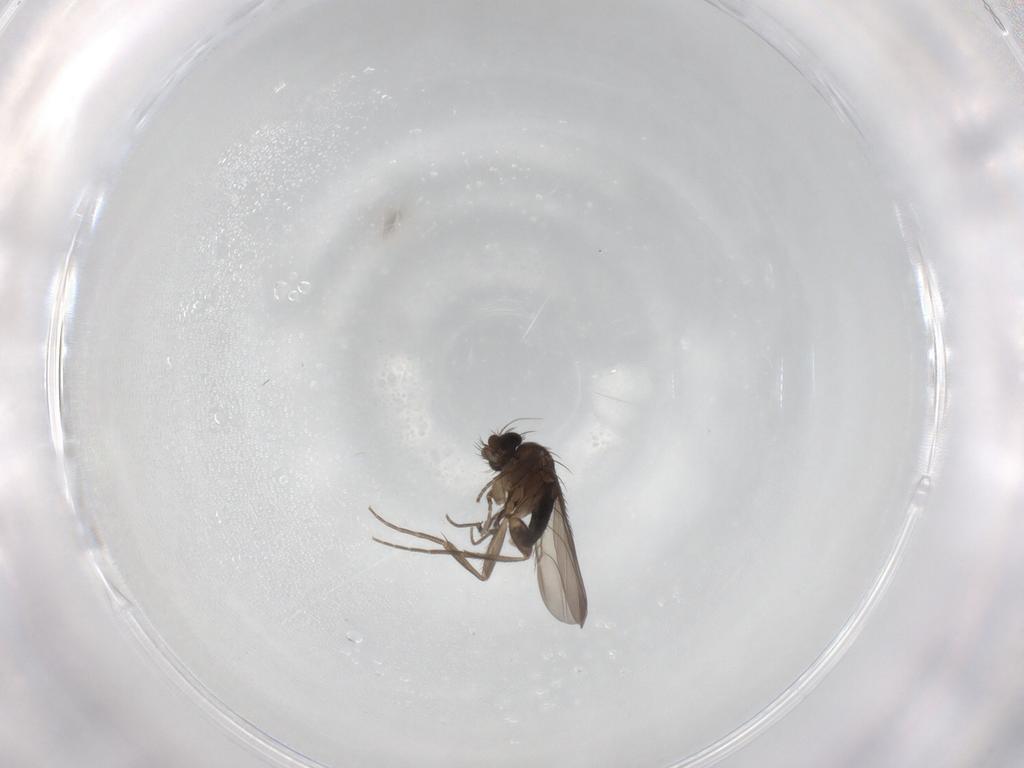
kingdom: Animalia
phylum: Arthropoda
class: Insecta
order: Diptera
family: Phoridae
